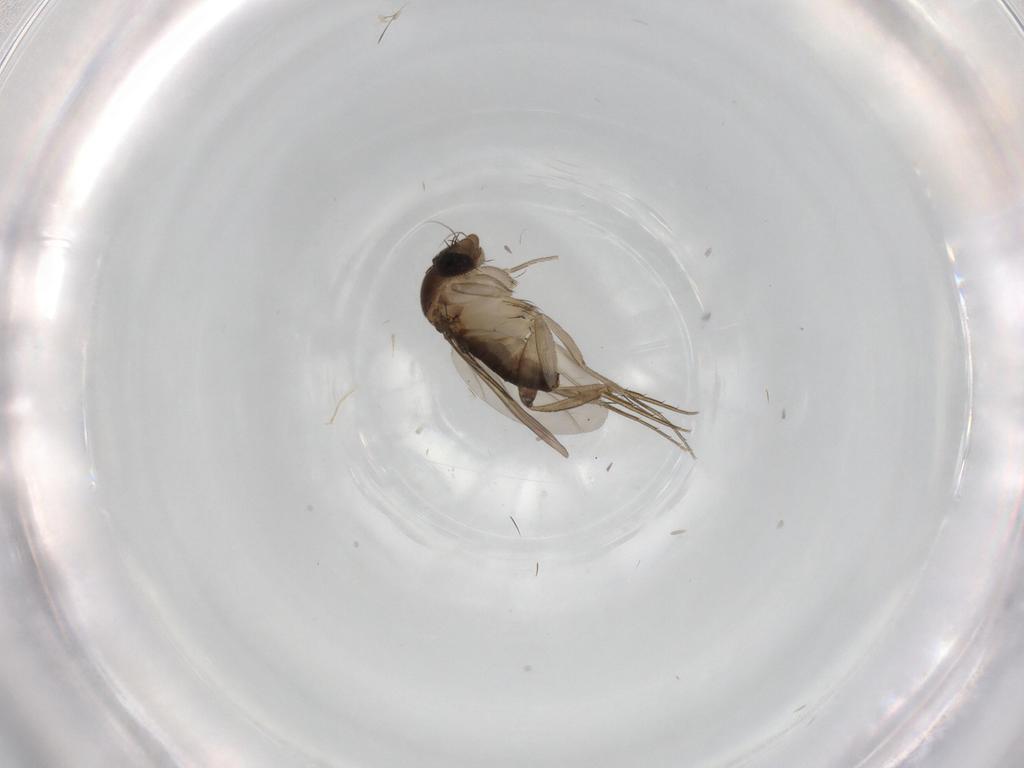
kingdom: Animalia
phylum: Arthropoda
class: Insecta
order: Diptera
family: Phoridae
